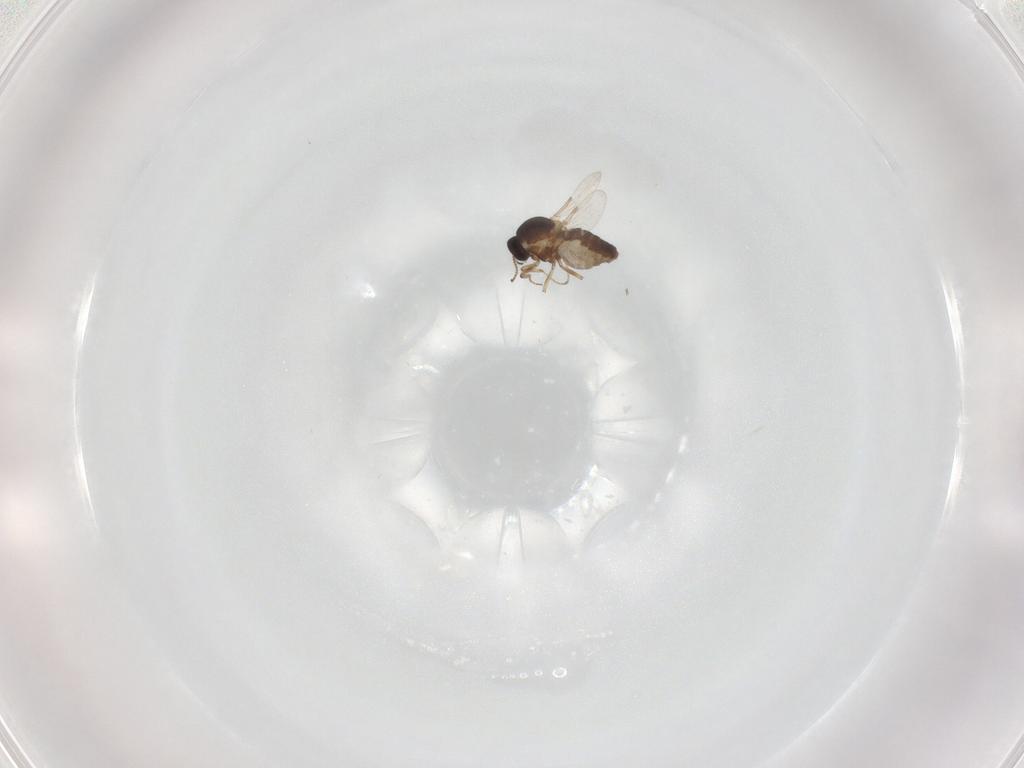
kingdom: Animalia
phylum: Arthropoda
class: Insecta
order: Diptera
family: Ceratopogonidae
